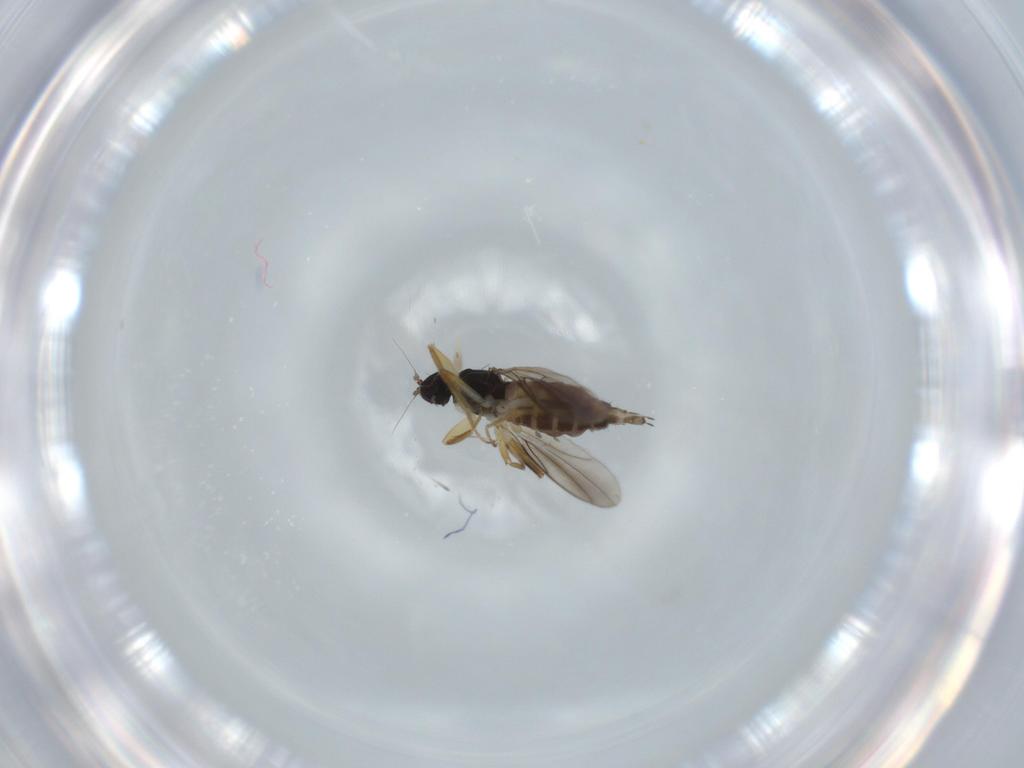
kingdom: Animalia
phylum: Arthropoda
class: Insecta
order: Diptera
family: Hybotidae
